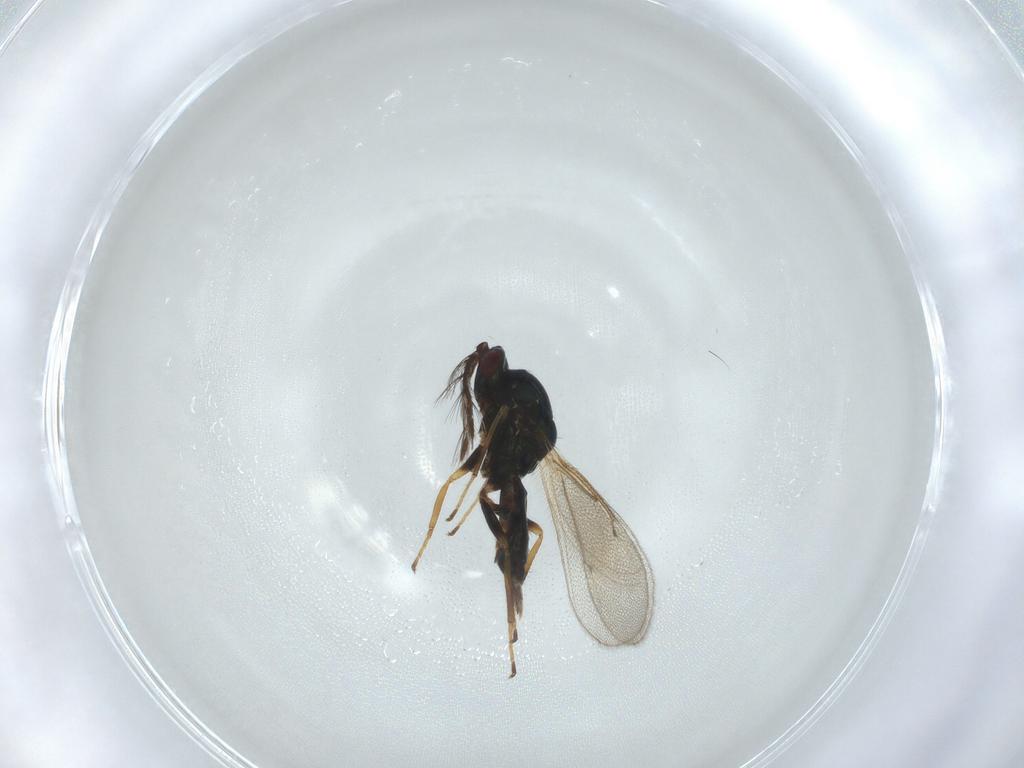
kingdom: Animalia
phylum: Arthropoda
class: Insecta
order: Hymenoptera
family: Eulophidae
